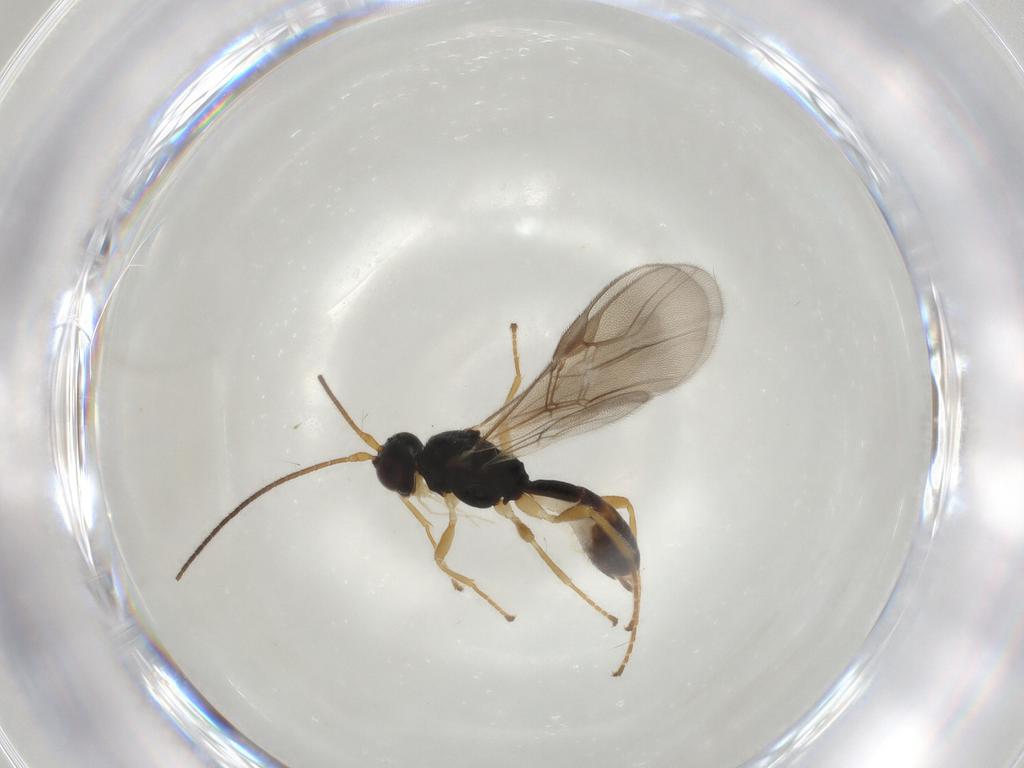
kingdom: Animalia
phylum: Arthropoda
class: Insecta
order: Hymenoptera
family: Braconidae
